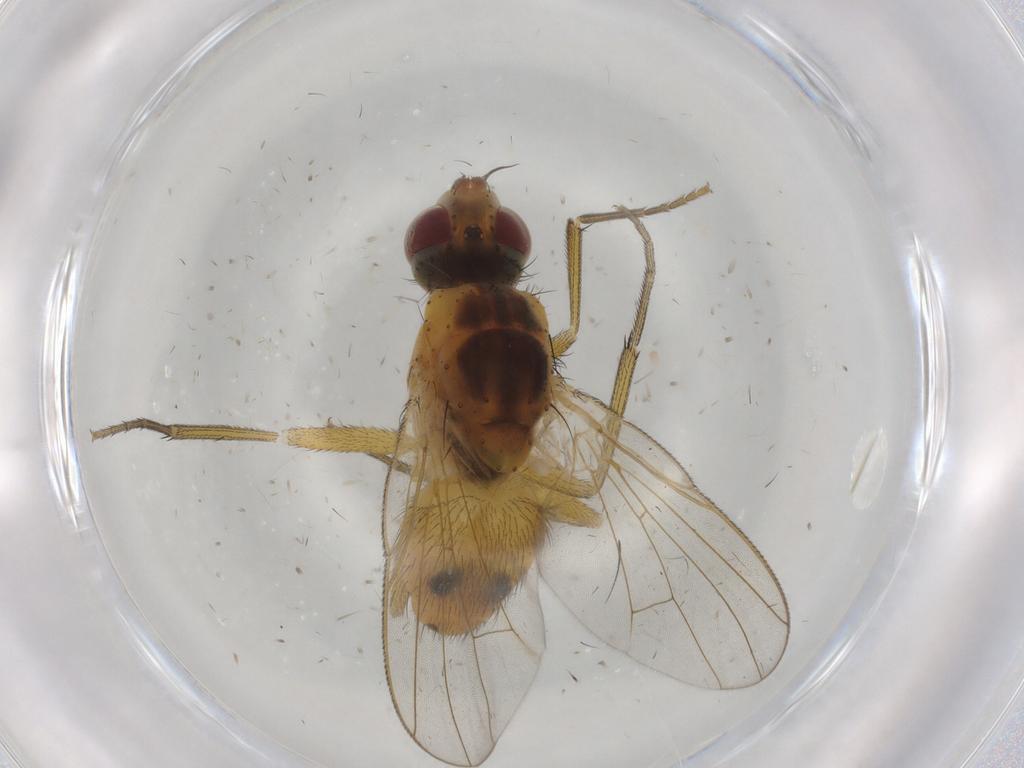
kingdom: Animalia
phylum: Arthropoda
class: Insecta
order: Diptera
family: Muscidae
